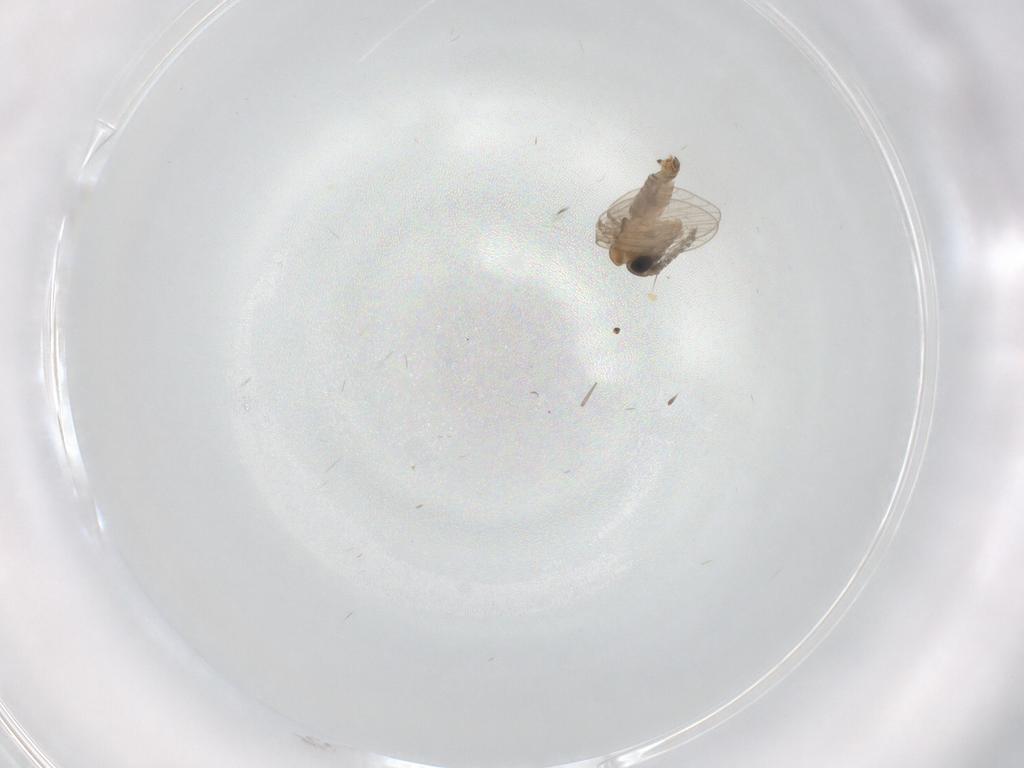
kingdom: Animalia
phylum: Arthropoda
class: Insecta
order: Diptera
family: Psychodidae
